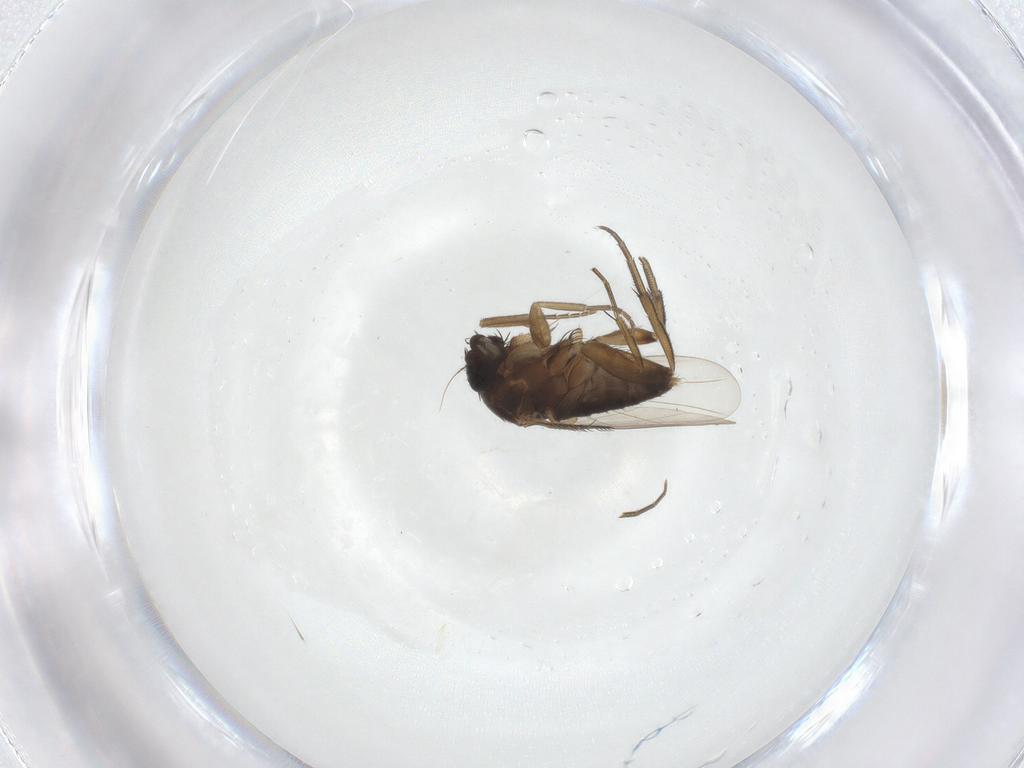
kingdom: Animalia
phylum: Arthropoda
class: Insecta
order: Diptera
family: Phoridae
